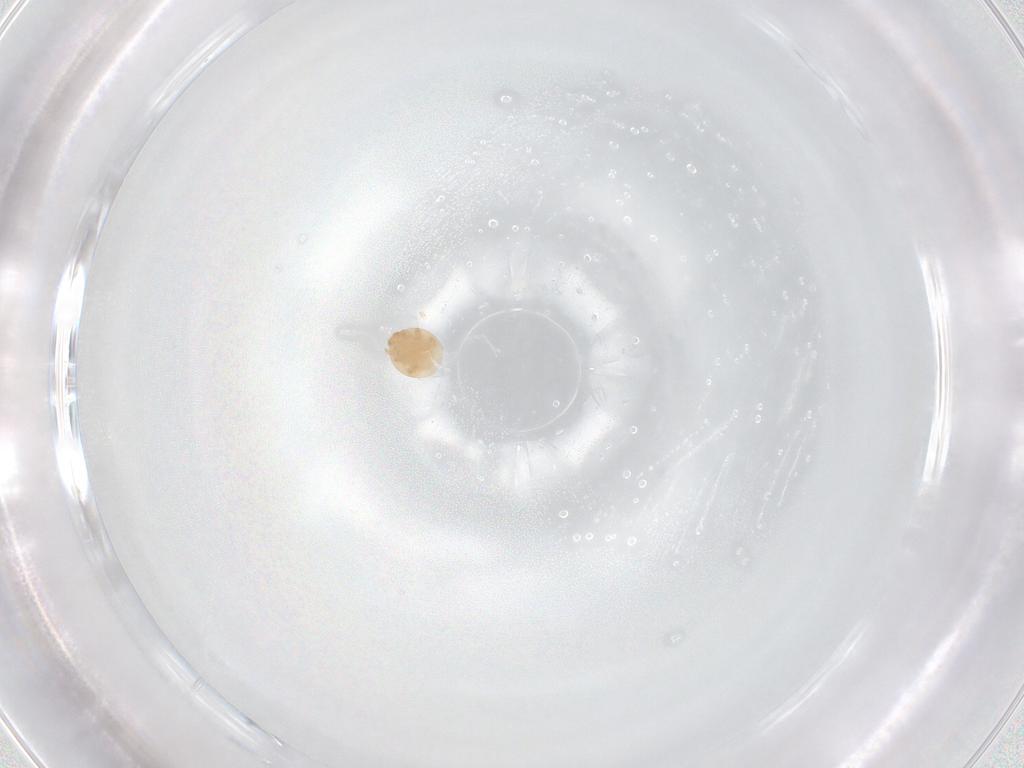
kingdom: Animalia
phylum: Arthropoda
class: Arachnida
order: Mesostigmata
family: Trematuridae
